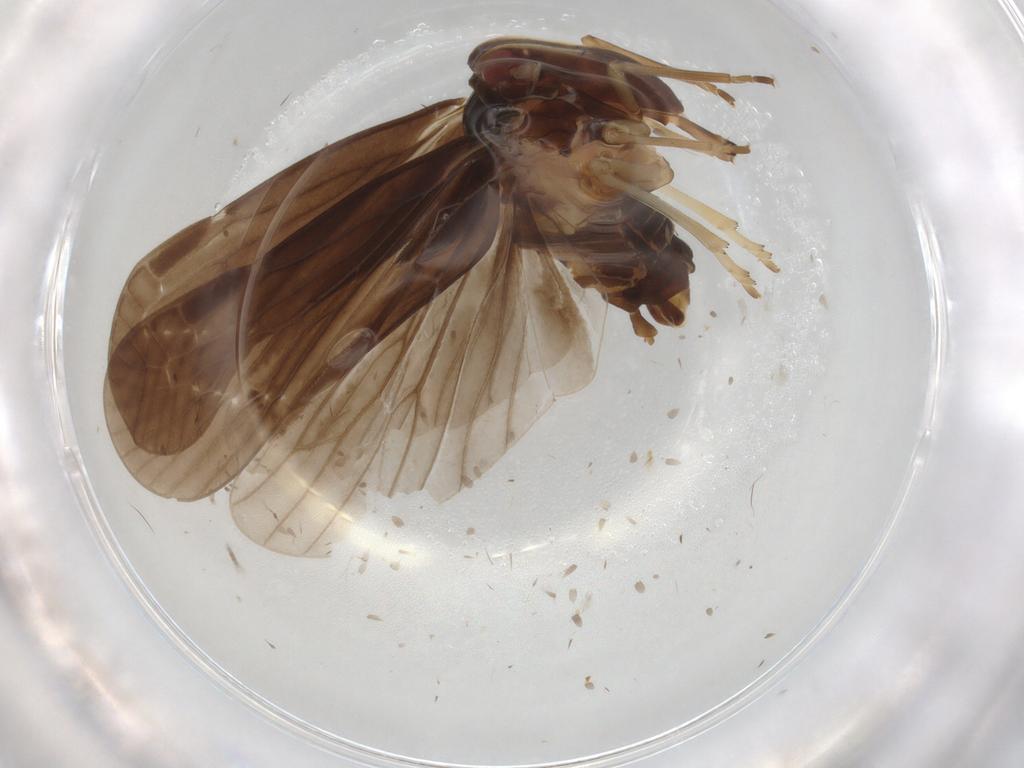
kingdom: Animalia
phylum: Arthropoda
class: Insecta
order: Hemiptera
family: Derbidae
